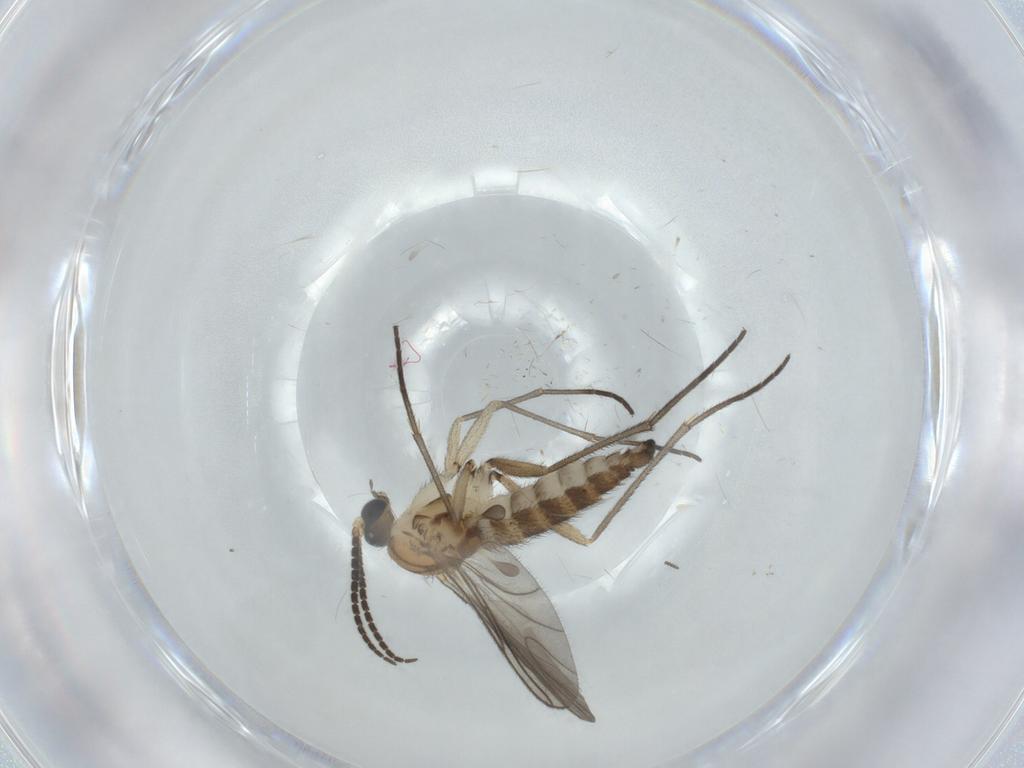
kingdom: Animalia
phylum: Arthropoda
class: Insecta
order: Diptera
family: Sciaridae
